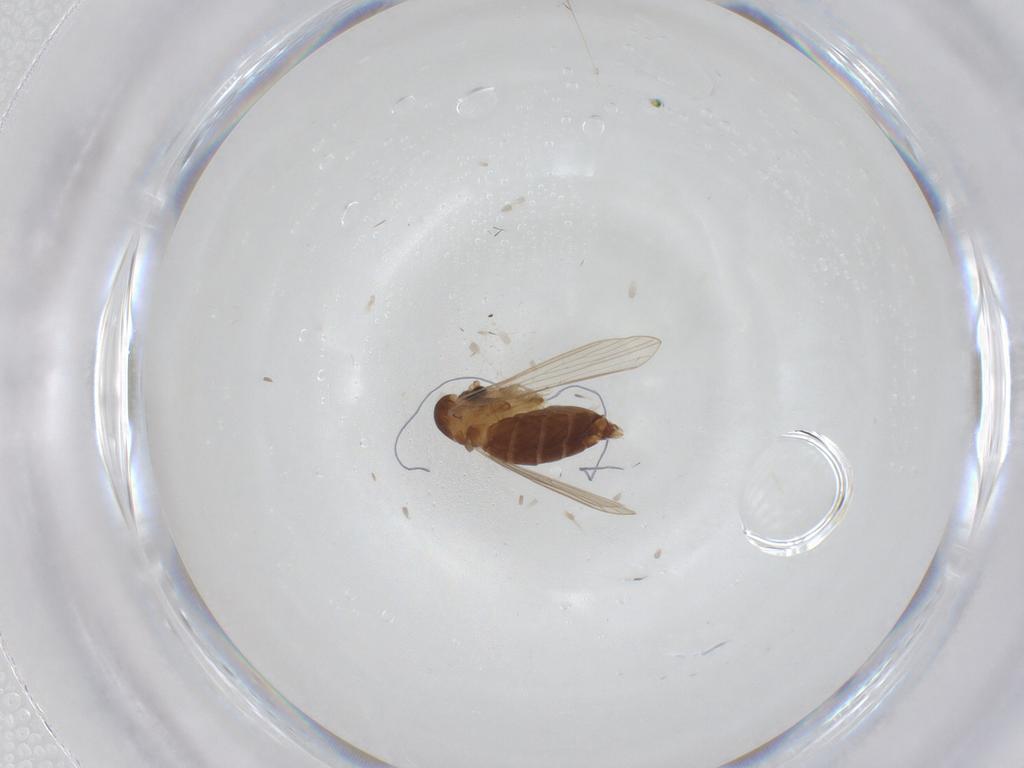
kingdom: Animalia
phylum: Arthropoda
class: Insecta
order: Diptera
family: Psychodidae
